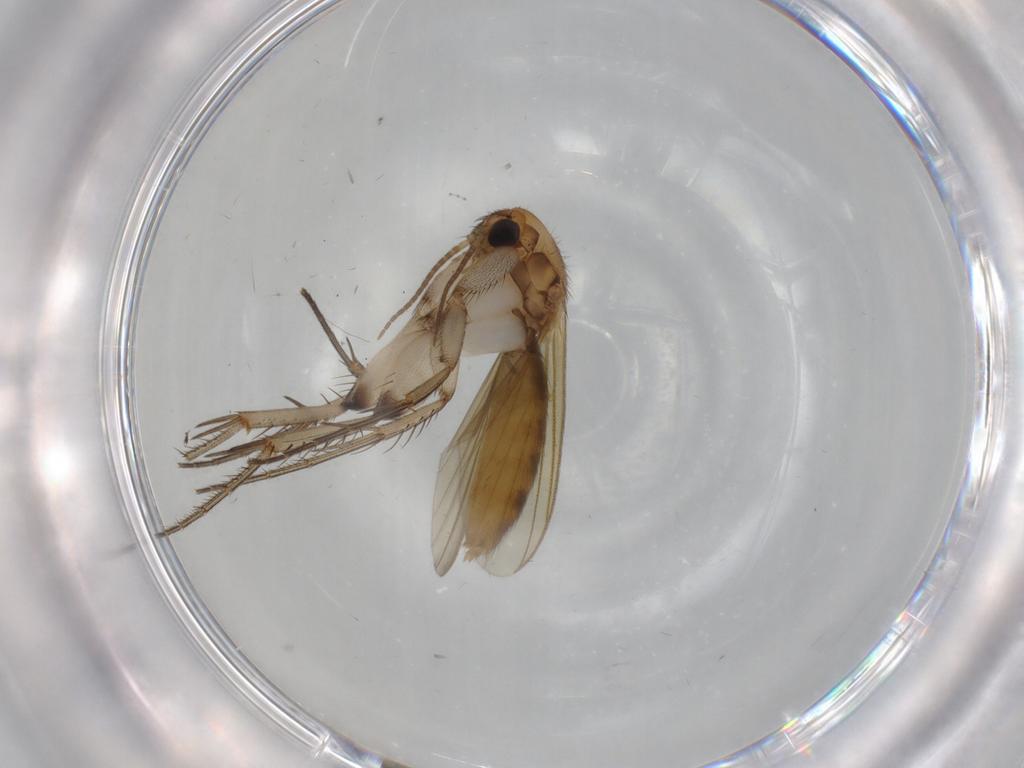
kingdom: Animalia
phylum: Arthropoda
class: Insecta
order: Diptera
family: Mycetophilidae
